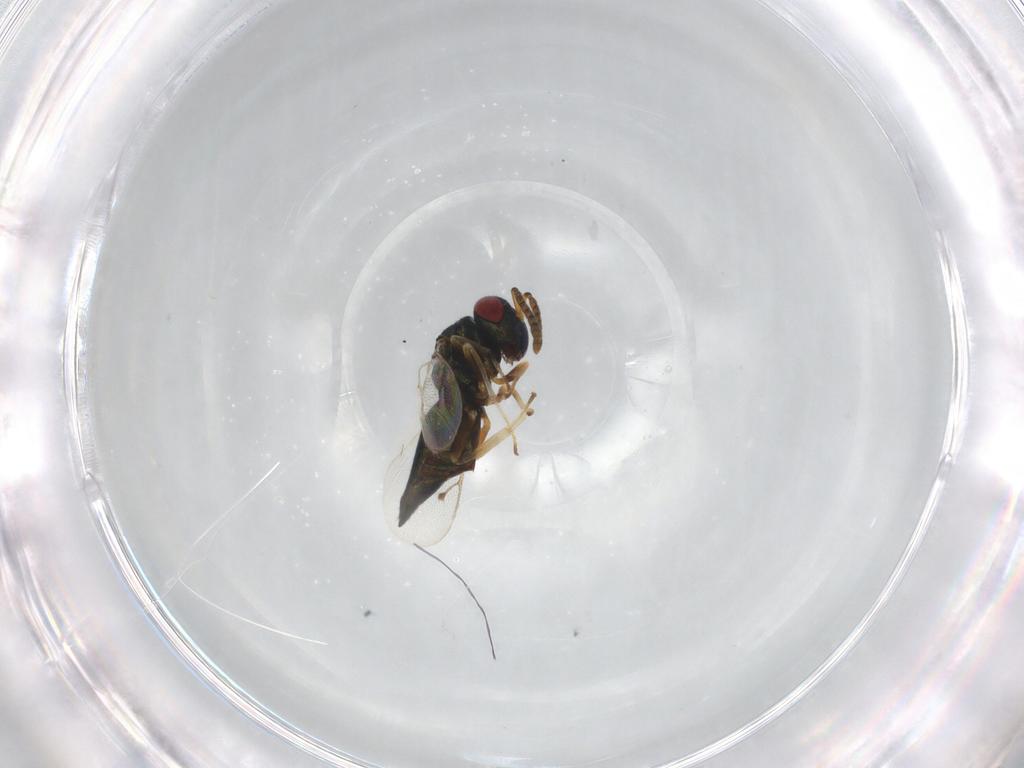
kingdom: Animalia
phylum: Arthropoda
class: Insecta
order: Hymenoptera
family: Pteromalidae
